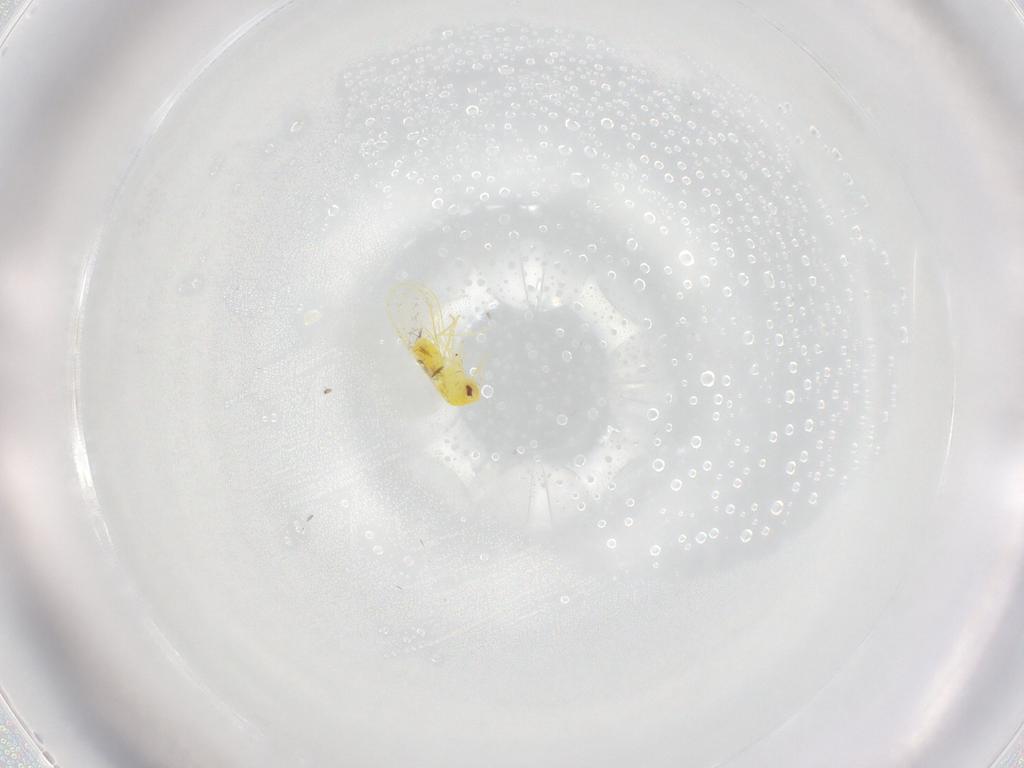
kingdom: Animalia
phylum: Arthropoda
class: Insecta
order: Hemiptera
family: Aleyrodidae
